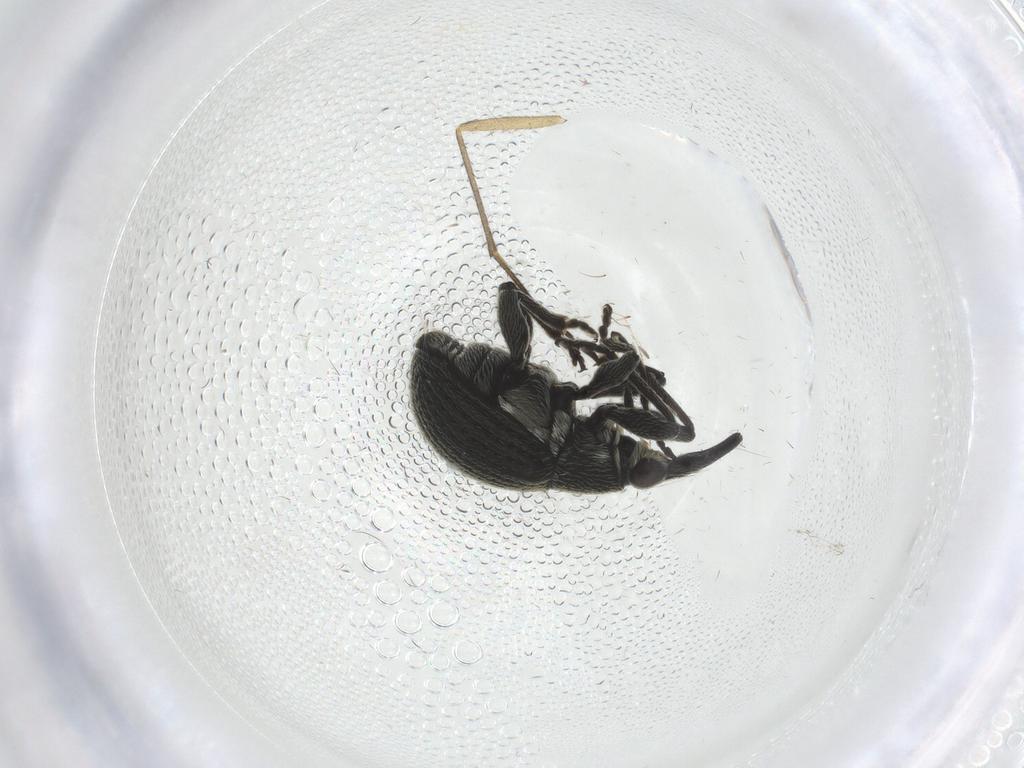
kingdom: Animalia
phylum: Arthropoda
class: Insecta
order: Coleoptera
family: Brentidae
